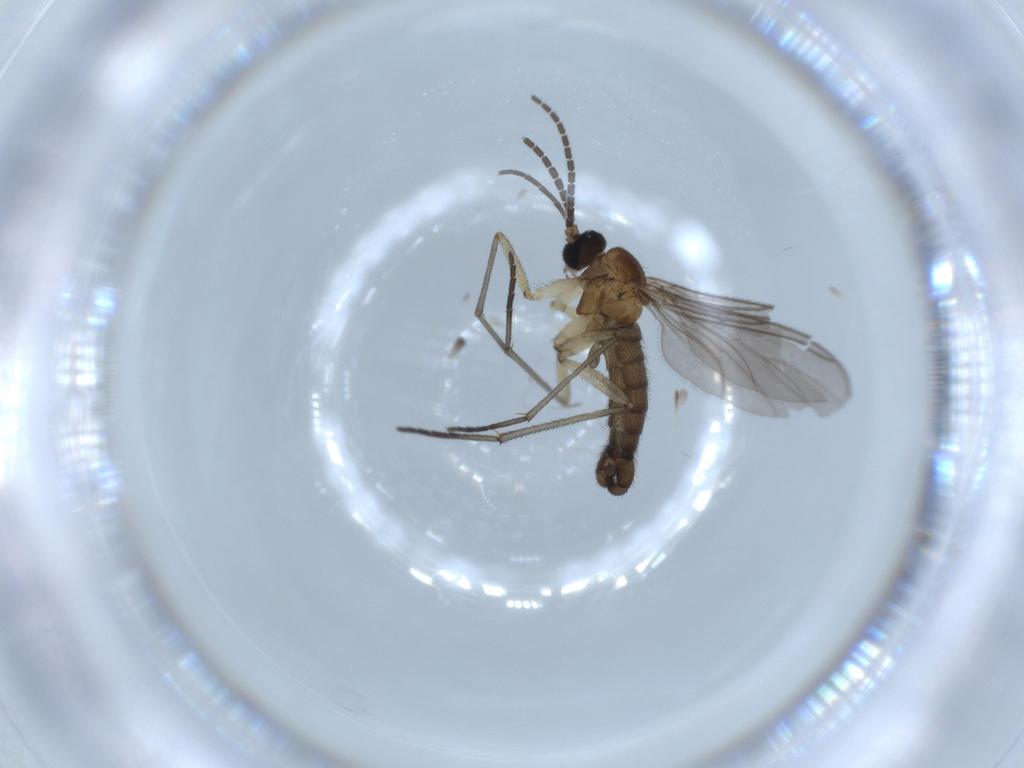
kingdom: Animalia
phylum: Arthropoda
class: Insecta
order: Diptera
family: Sciaridae
